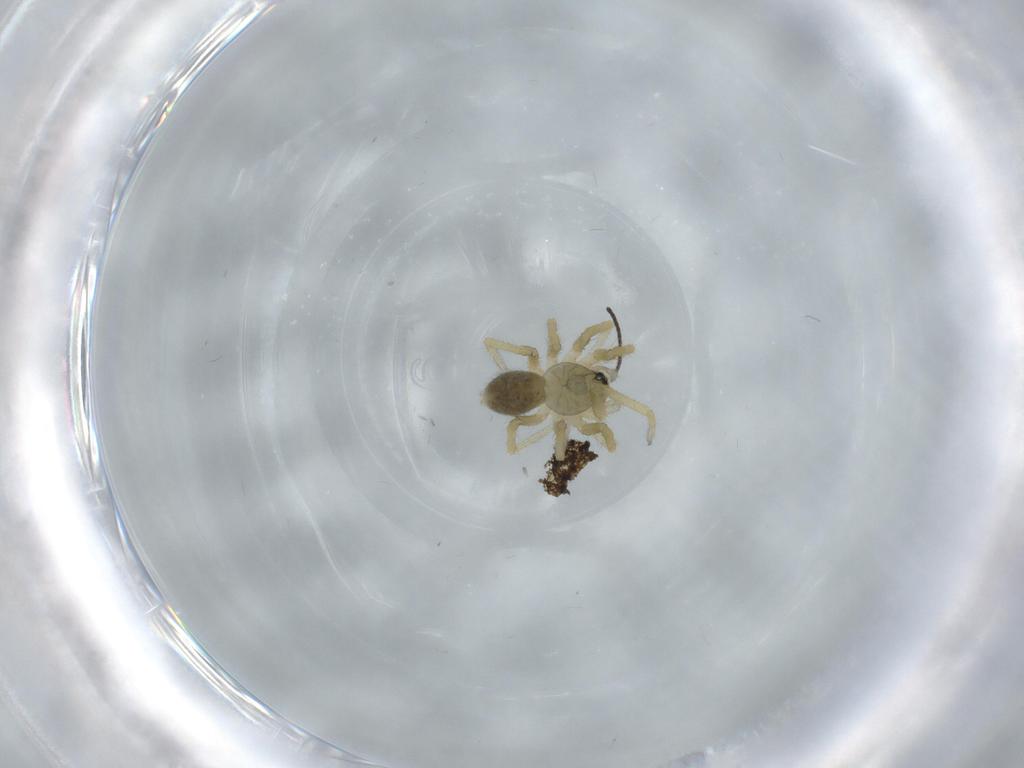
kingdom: Animalia
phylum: Arthropoda
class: Arachnida
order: Araneae
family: Linyphiidae
